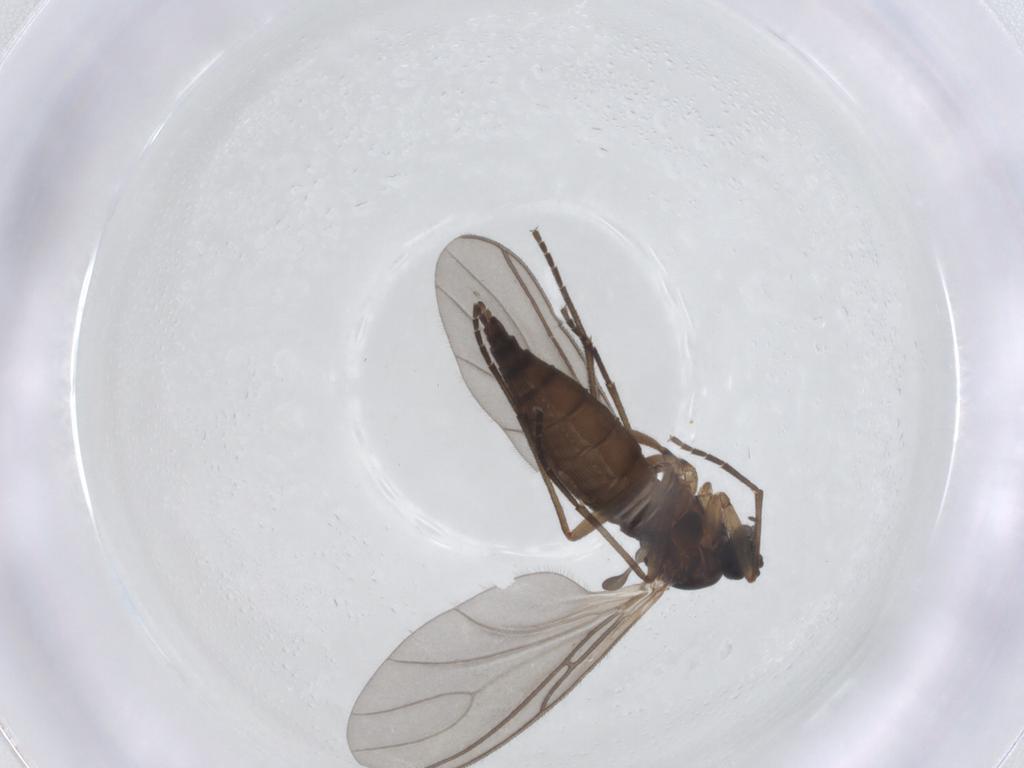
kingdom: Animalia
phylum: Arthropoda
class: Insecta
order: Diptera
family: Sciaridae
